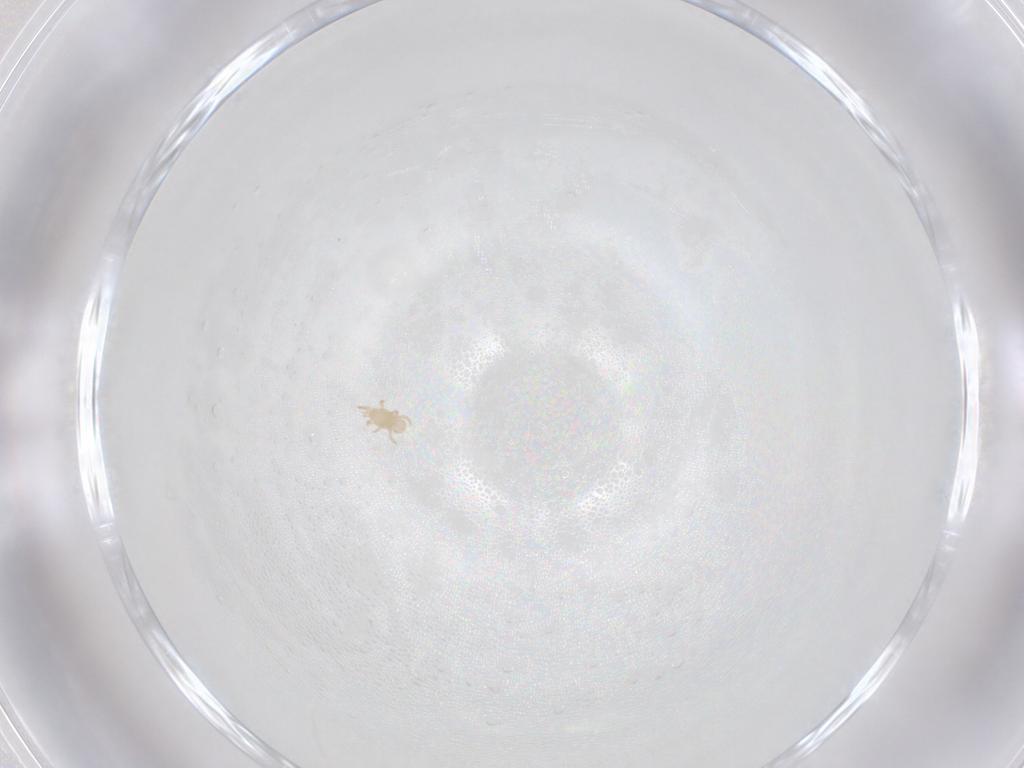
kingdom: Animalia
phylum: Arthropoda
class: Arachnida
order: Mesostigmata
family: Digamasellidae
